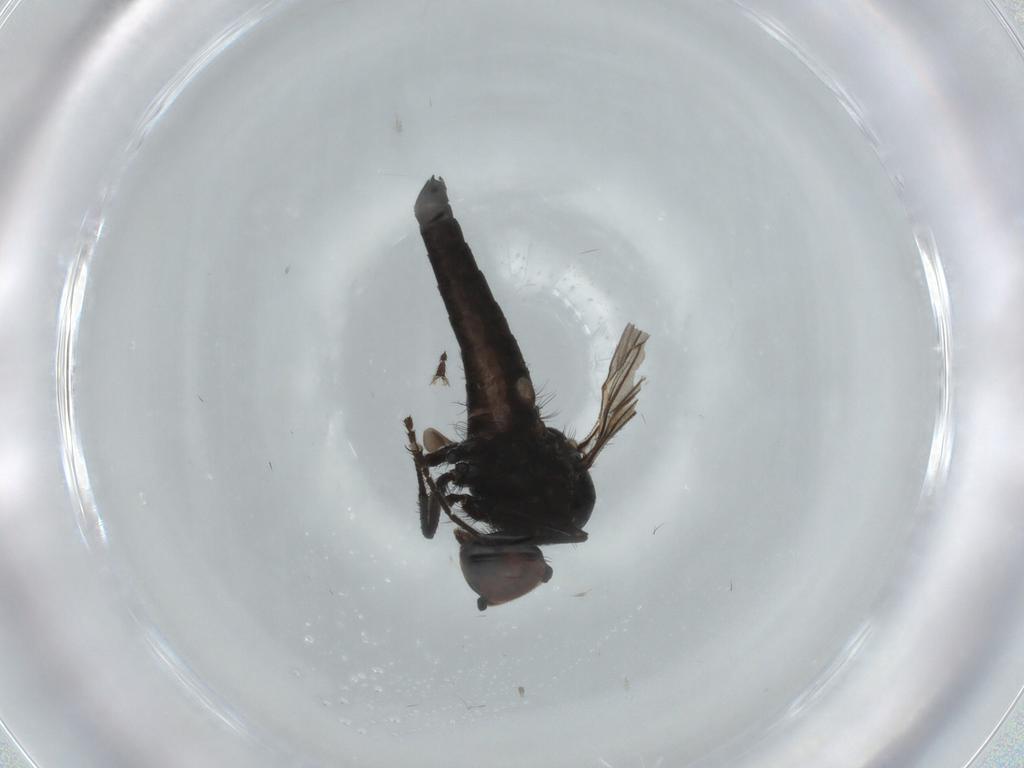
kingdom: Animalia
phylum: Arthropoda
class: Insecta
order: Diptera
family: Hybotidae
